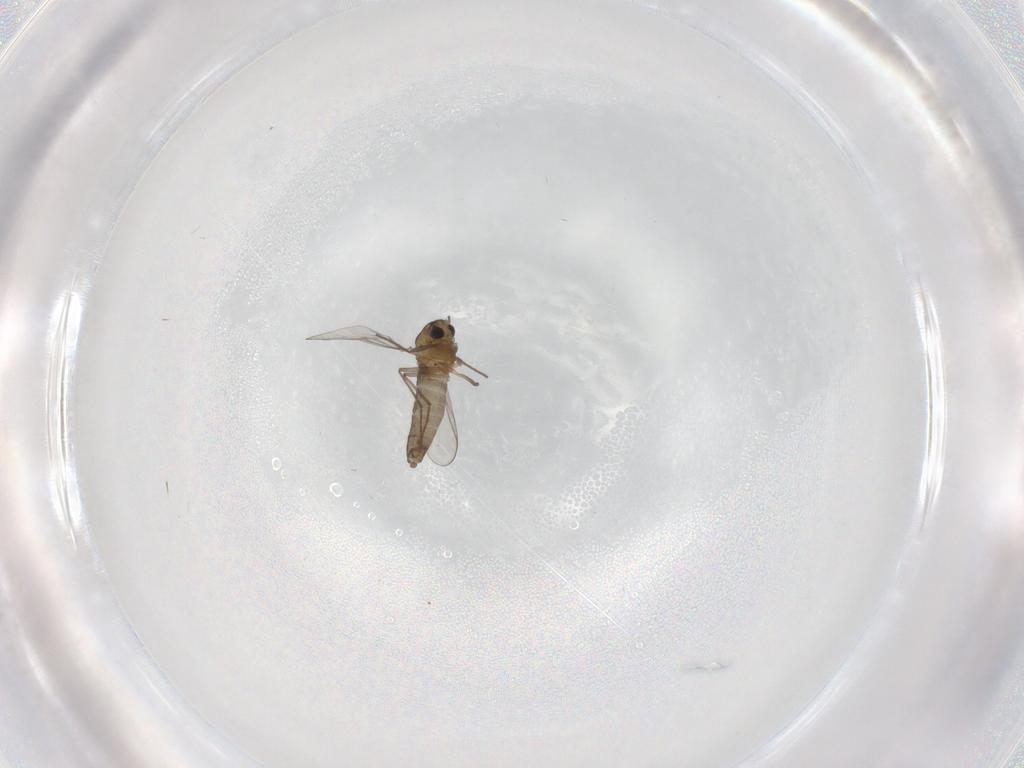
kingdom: Animalia
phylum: Arthropoda
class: Insecta
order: Diptera
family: Chironomidae
